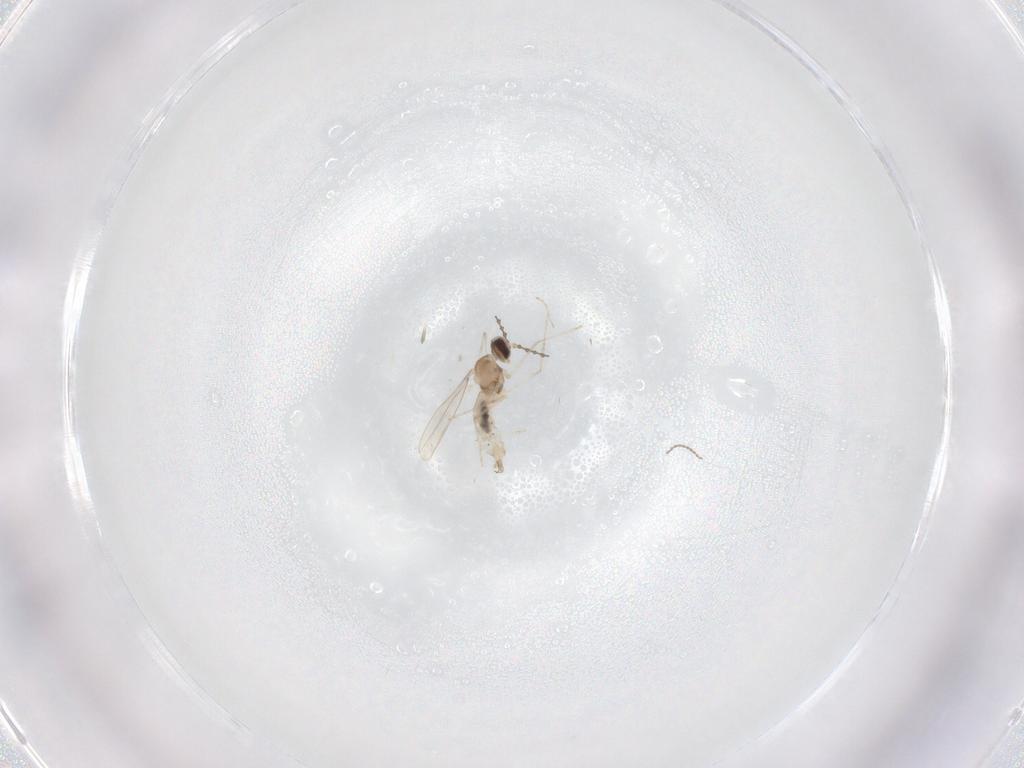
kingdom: Animalia
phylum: Arthropoda
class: Insecta
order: Diptera
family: Cecidomyiidae
